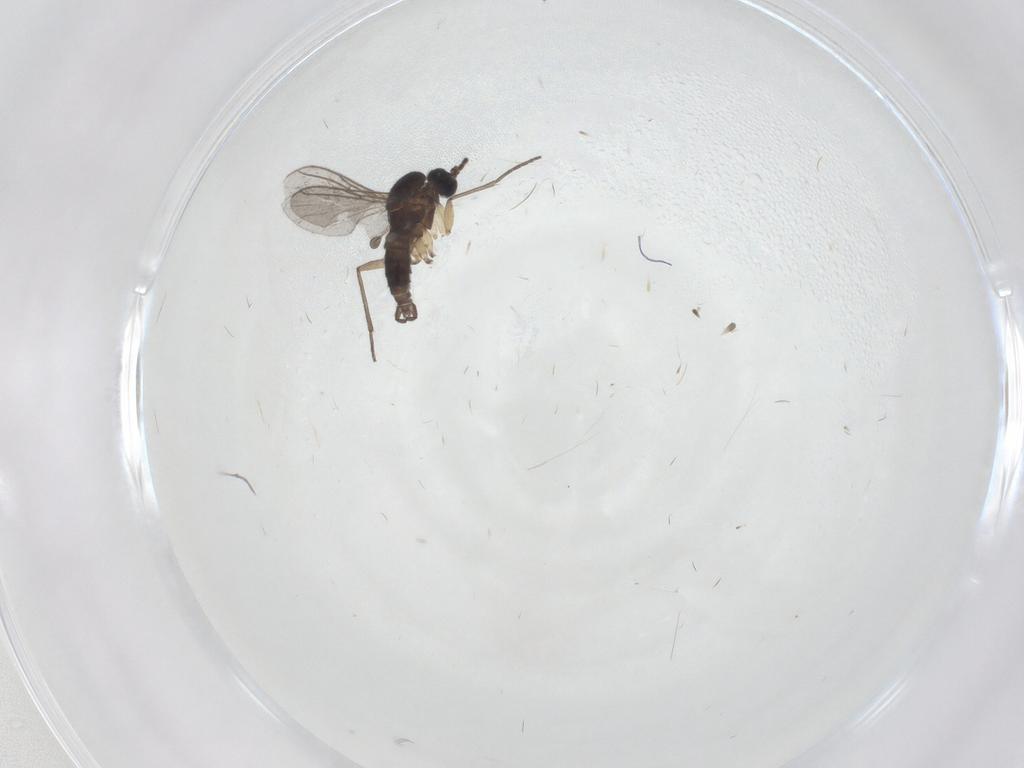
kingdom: Animalia
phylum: Arthropoda
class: Insecta
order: Diptera
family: Sciaridae
